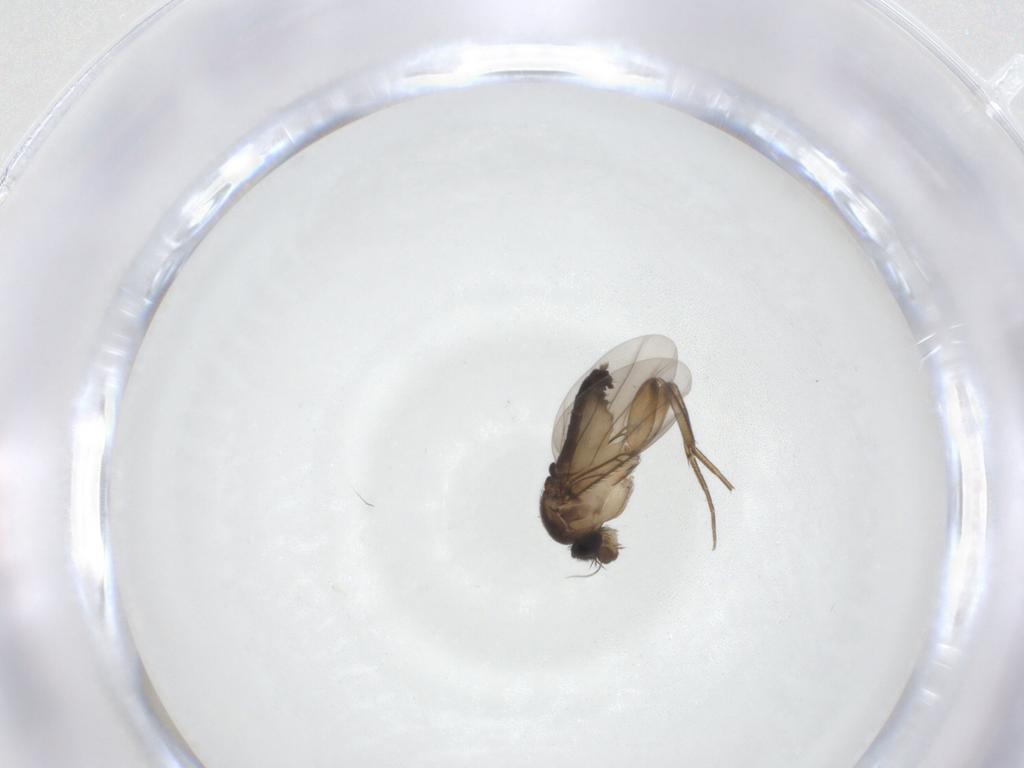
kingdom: Animalia
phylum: Arthropoda
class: Insecta
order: Diptera
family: Phoridae
